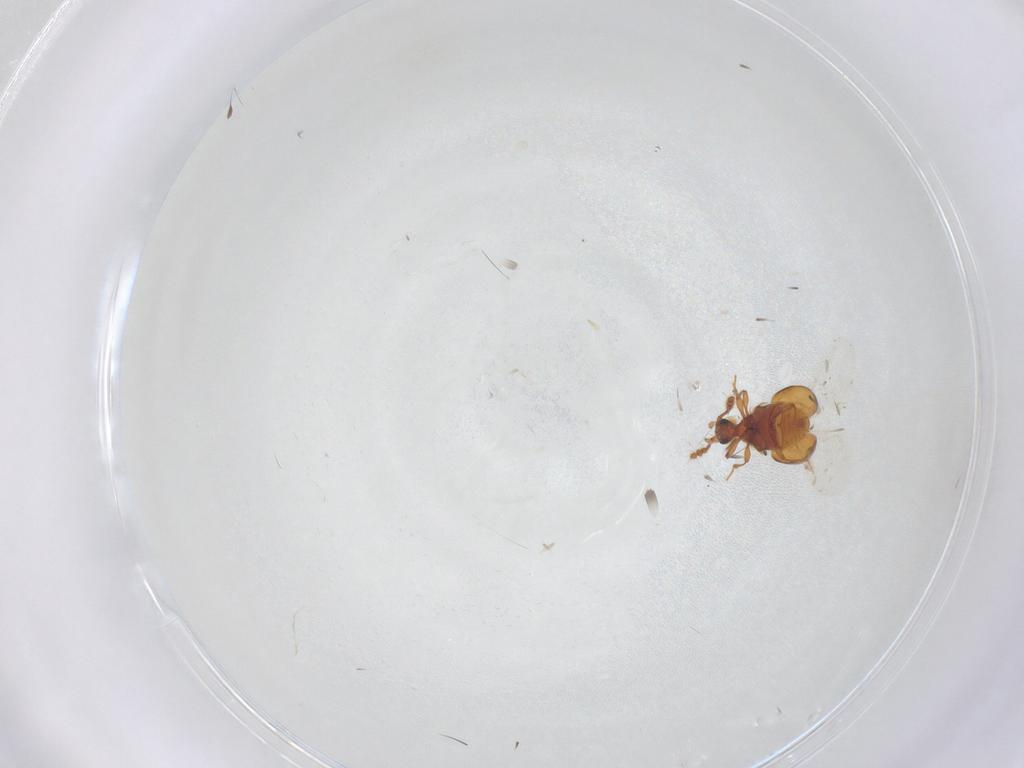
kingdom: Animalia
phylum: Arthropoda
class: Insecta
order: Coleoptera
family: Staphylinidae
